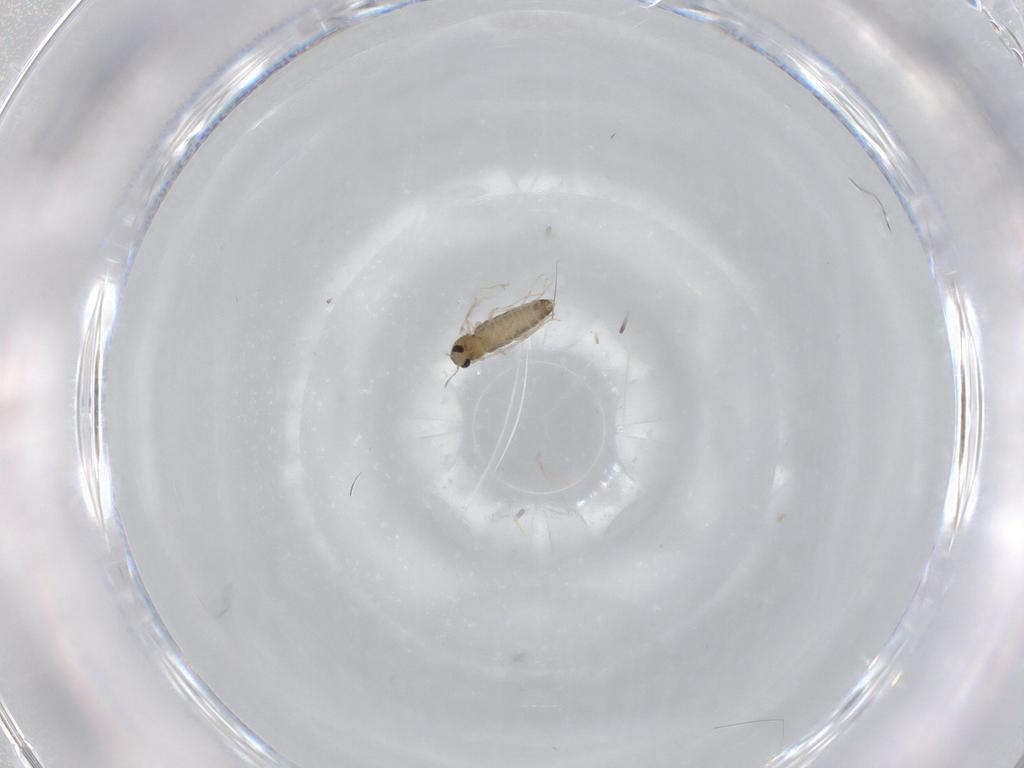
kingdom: Animalia
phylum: Arthropoda
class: Insecta
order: Diptera
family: Chironomidae
